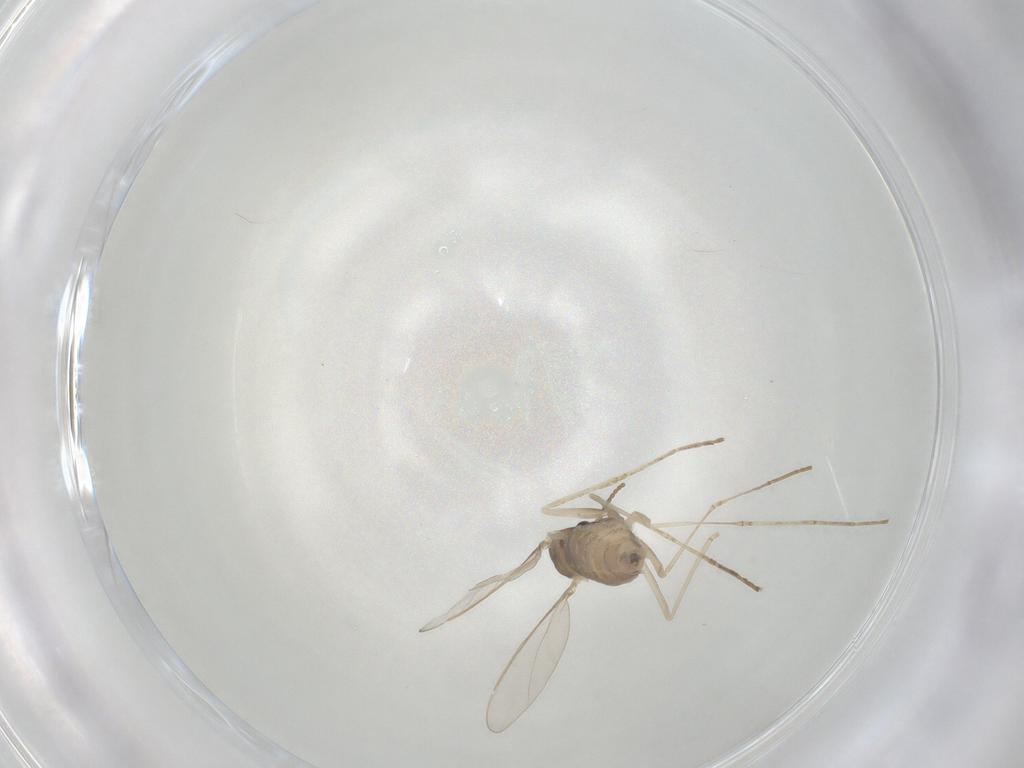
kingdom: Animalia
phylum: Arthropoda
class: Insecta
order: Diptera
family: Cecidomyiidae
